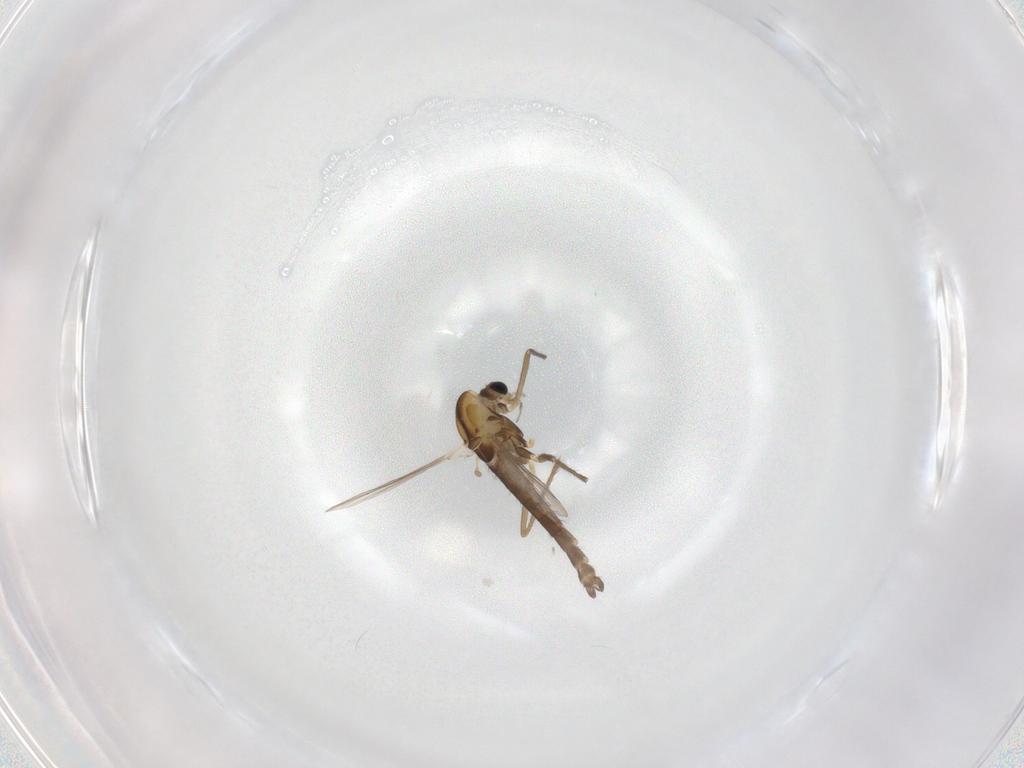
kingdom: Animalia
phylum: Arthropoda
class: Insecta
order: Diptera
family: Chironomidae
